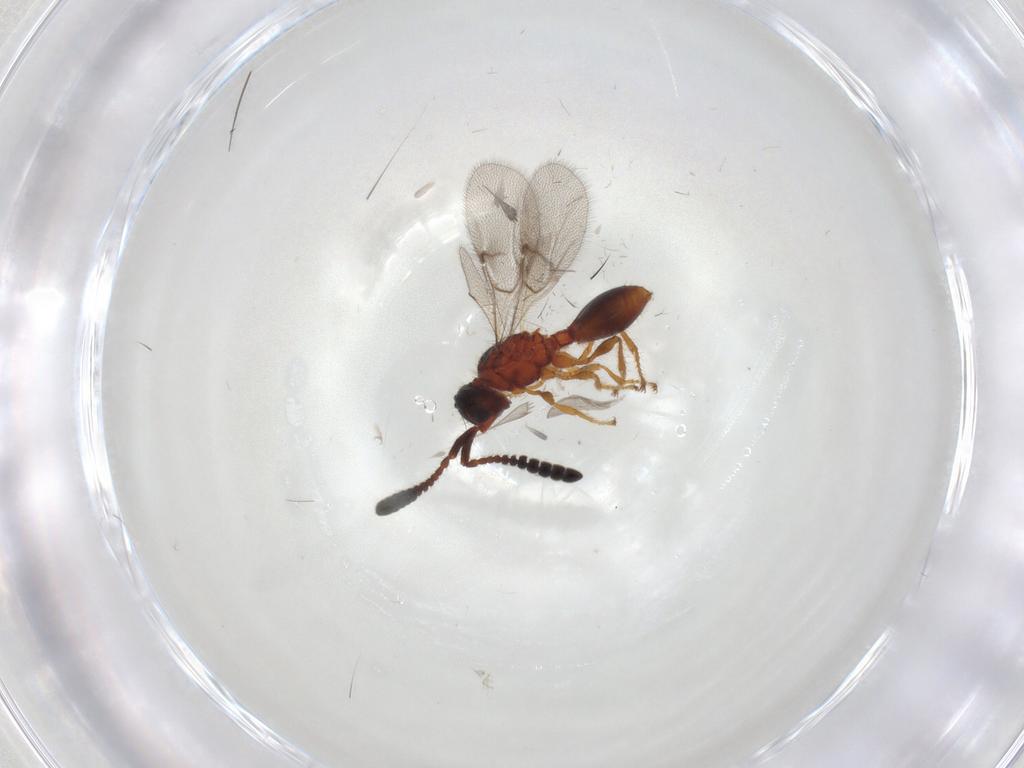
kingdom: Animalia
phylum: Arthropoda
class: Insecta
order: Hymenoptera
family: Diapriidae
